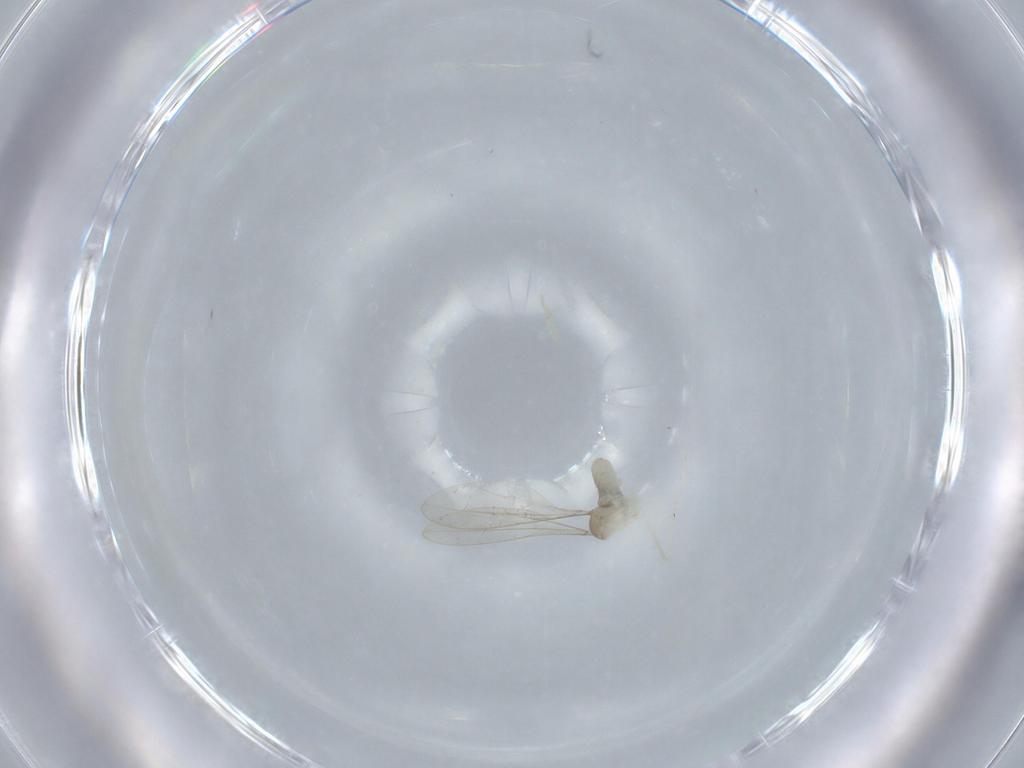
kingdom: Animalia
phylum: Arthropoda
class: Insecta
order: Diptera
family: Cecidomyiidae
